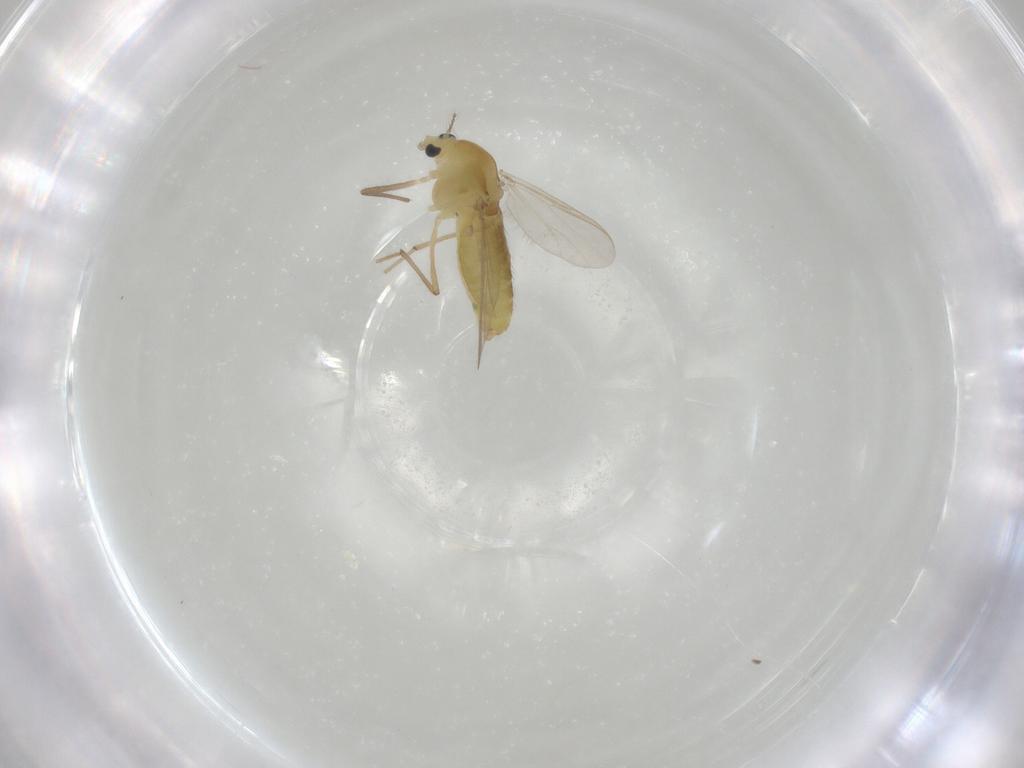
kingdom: Animalia
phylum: Arthropoda
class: Insecta
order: Diptera
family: Chironomidae
